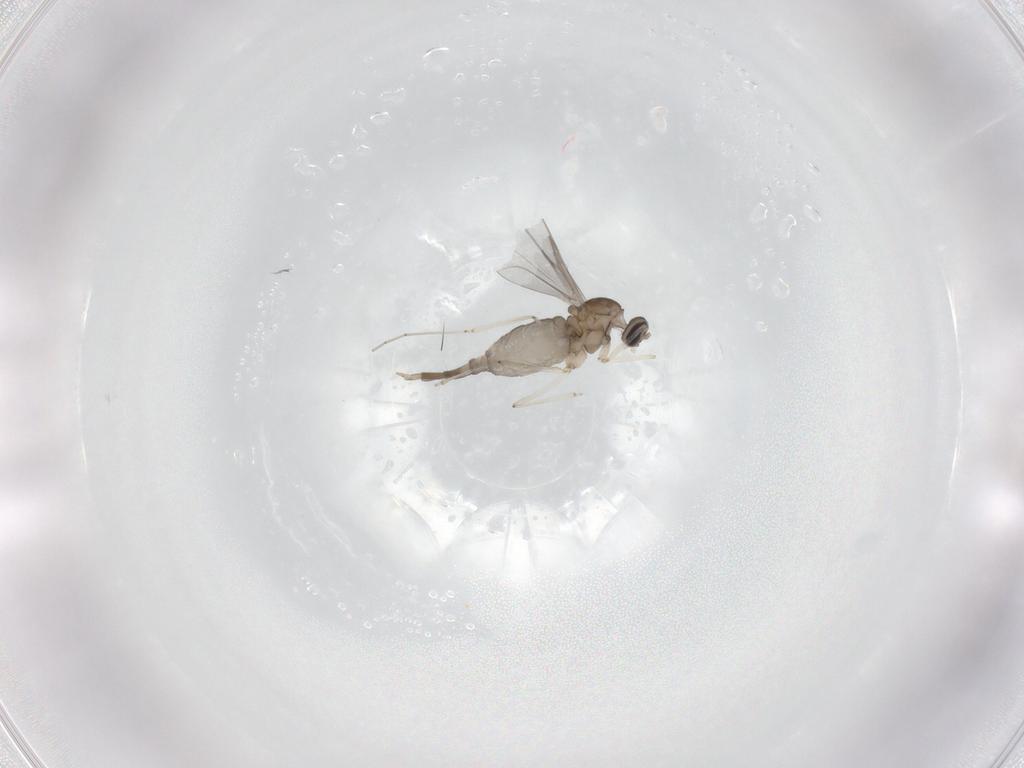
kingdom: Animalia
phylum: Arthropoda
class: Insecta
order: Diptera
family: Cecidomyiidae
